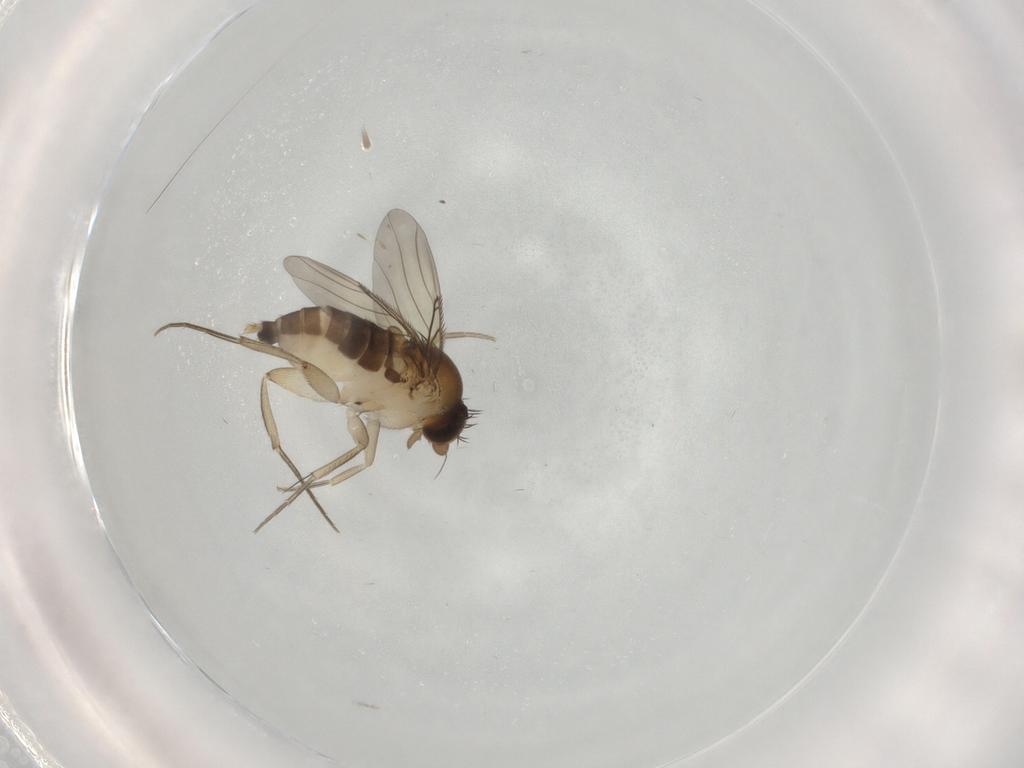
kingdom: Animalia
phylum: Arthropoda
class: Insecta
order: Diptera
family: Phoridae
